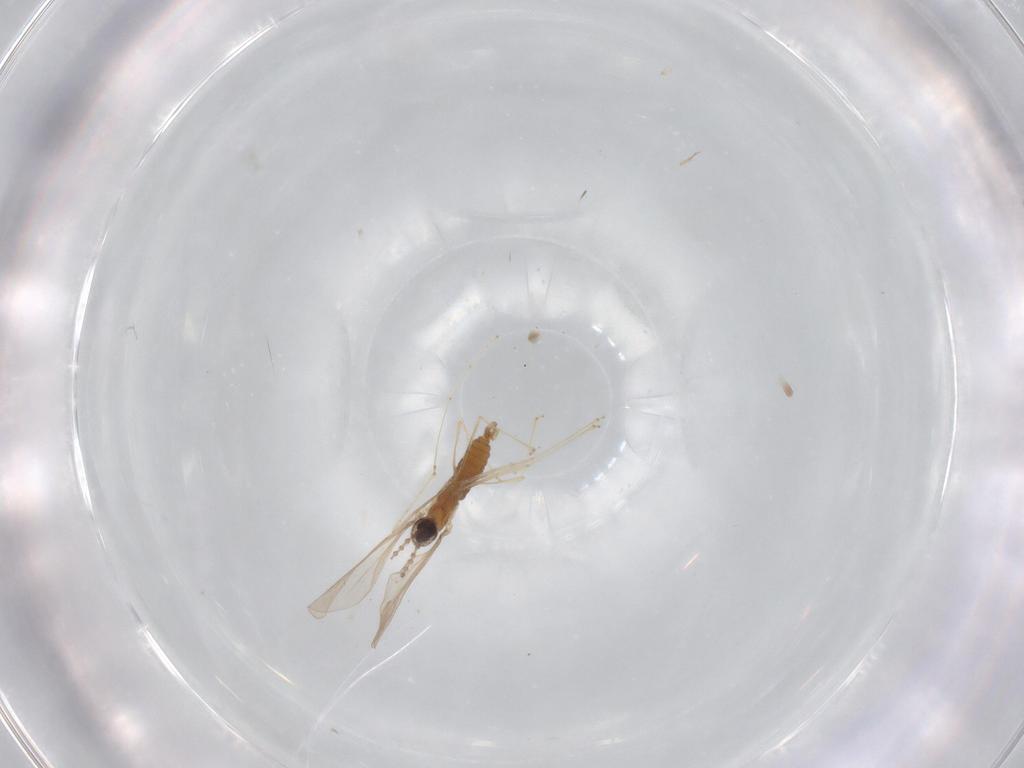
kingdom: Animalia
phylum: Arthropoda
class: Insecta
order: Diptera
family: Cecidomyiidae
